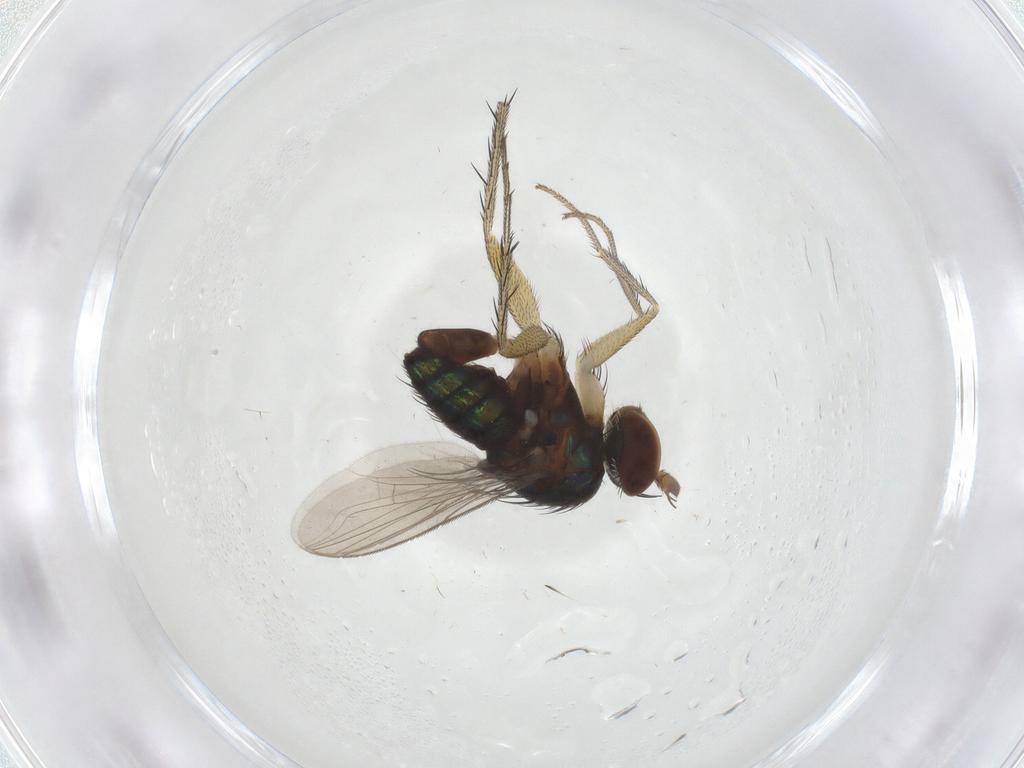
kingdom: Animalia
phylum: Arthropoda
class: Insecta
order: Diptera
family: Dolichopodidae
